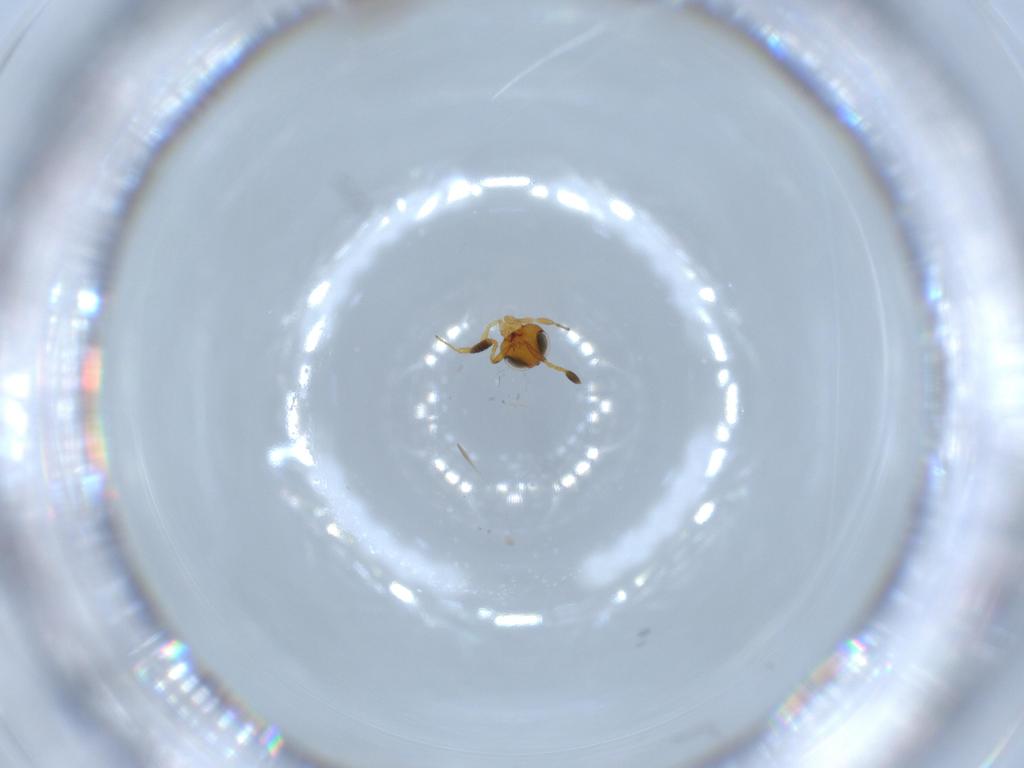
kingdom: Animalia
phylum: Arthropoda
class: Insecta
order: Hymenoptera
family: Scelionidae
